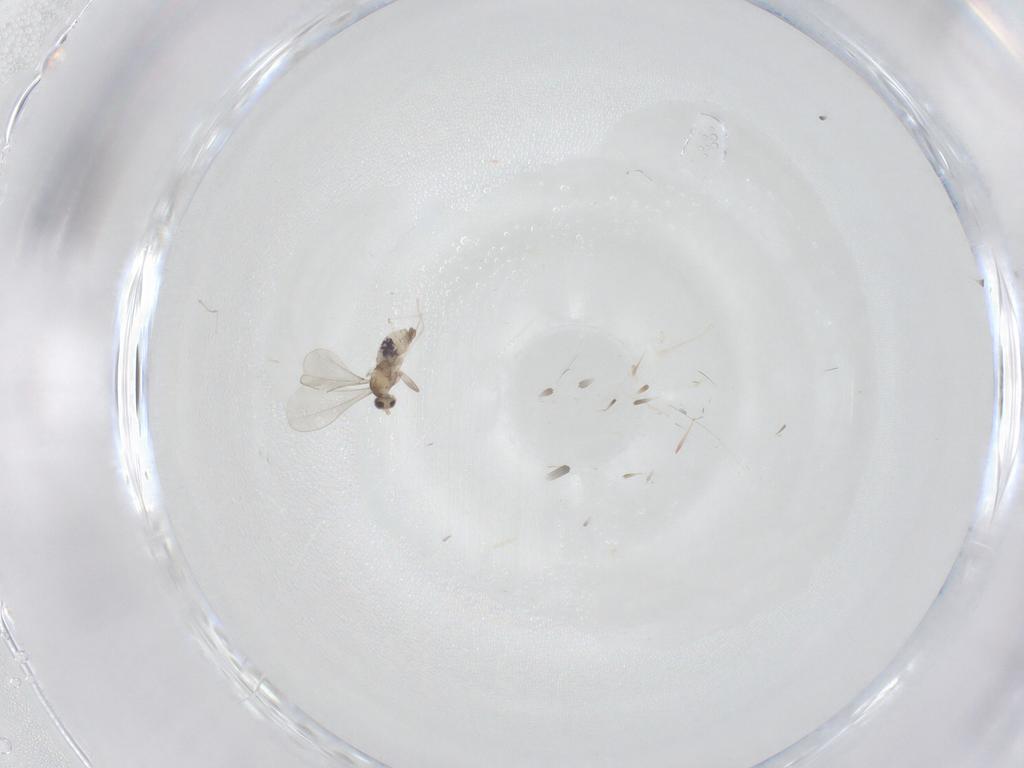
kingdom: Animalia
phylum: Arthropoda
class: Insecta
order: Diptera
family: Cecidomyiidae
